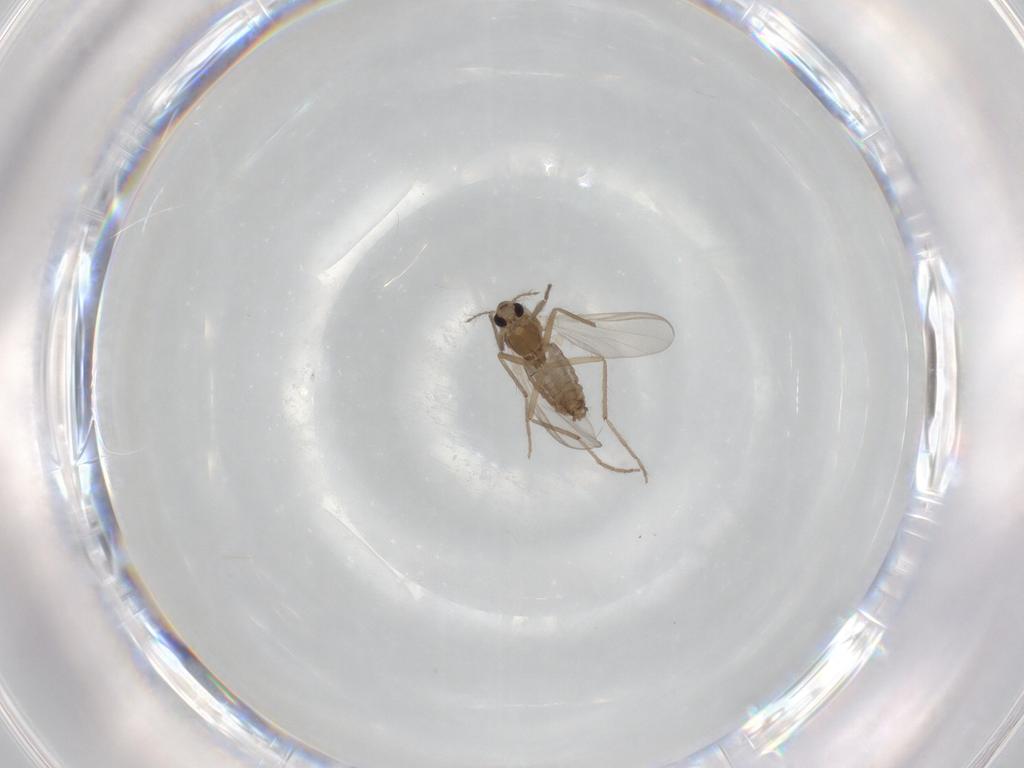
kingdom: Animalia
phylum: Arthropoda
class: Insecta
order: Diptera
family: Chironomidae
